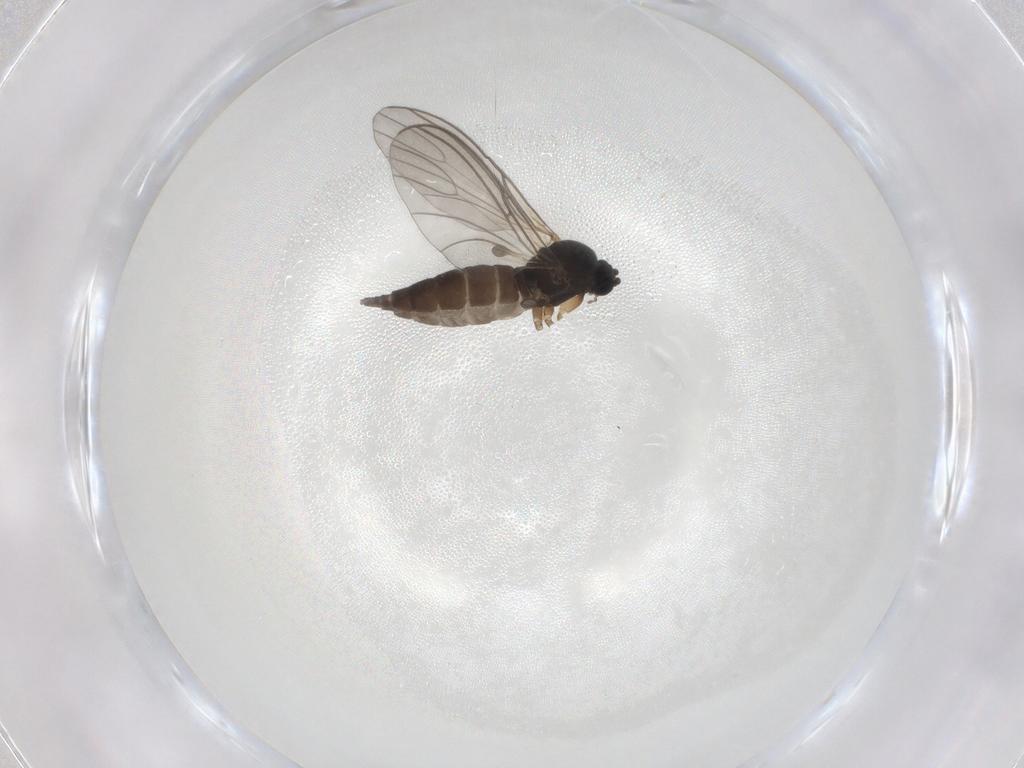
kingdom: Animalia
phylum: Arthropoda
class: Insecta
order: Diptera
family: Sciaridae
